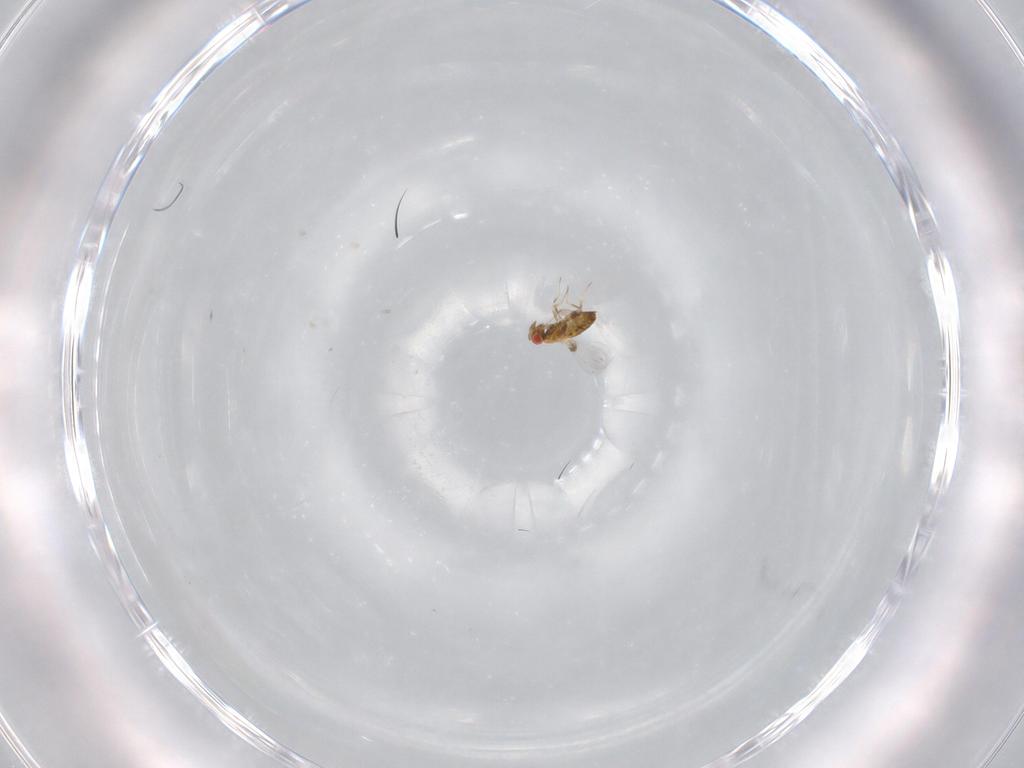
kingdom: Animalia
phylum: Arthropoda
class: Insecta
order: Hymenoptera
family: Trichogrammatidae
